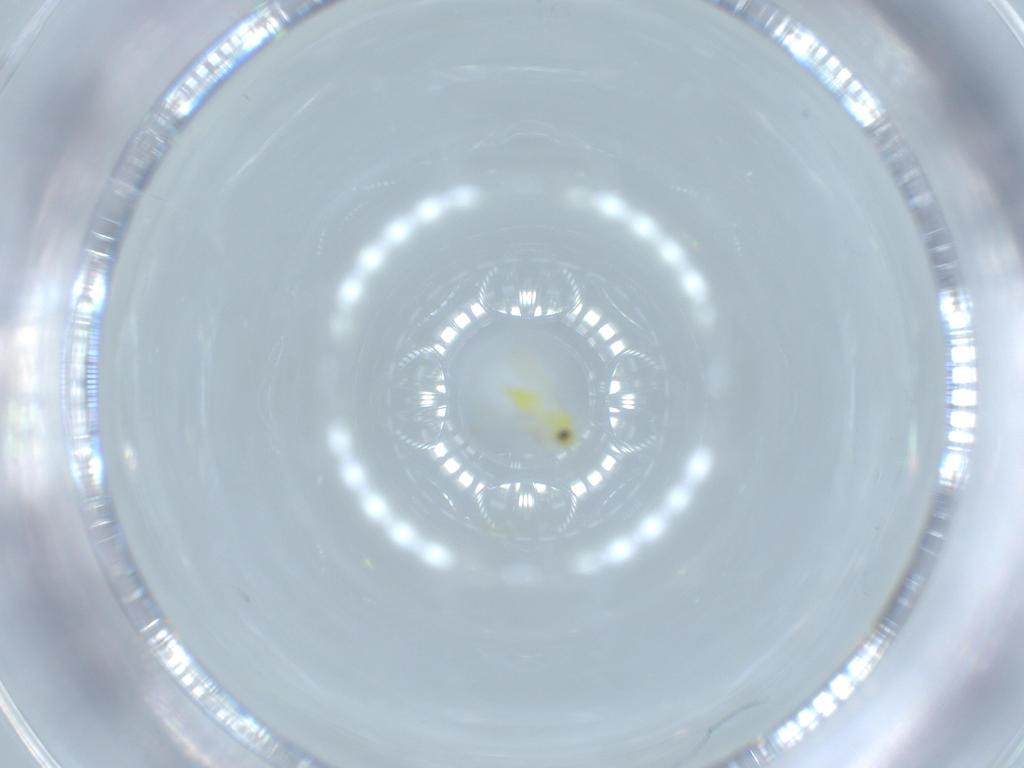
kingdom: Animalia
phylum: Arthropoda
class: Insecta
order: Hemiptera
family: Aleyrodidae
